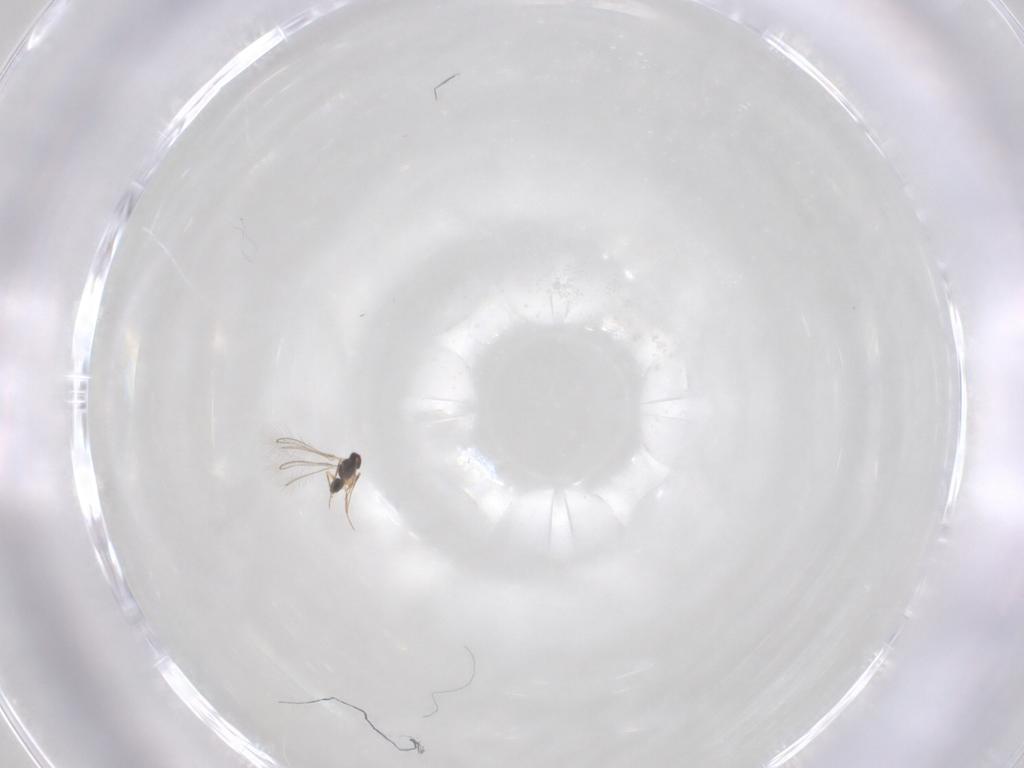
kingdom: Animalia
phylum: Arthropoda
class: Insecta
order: Hymenoptera
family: Mymaridae
